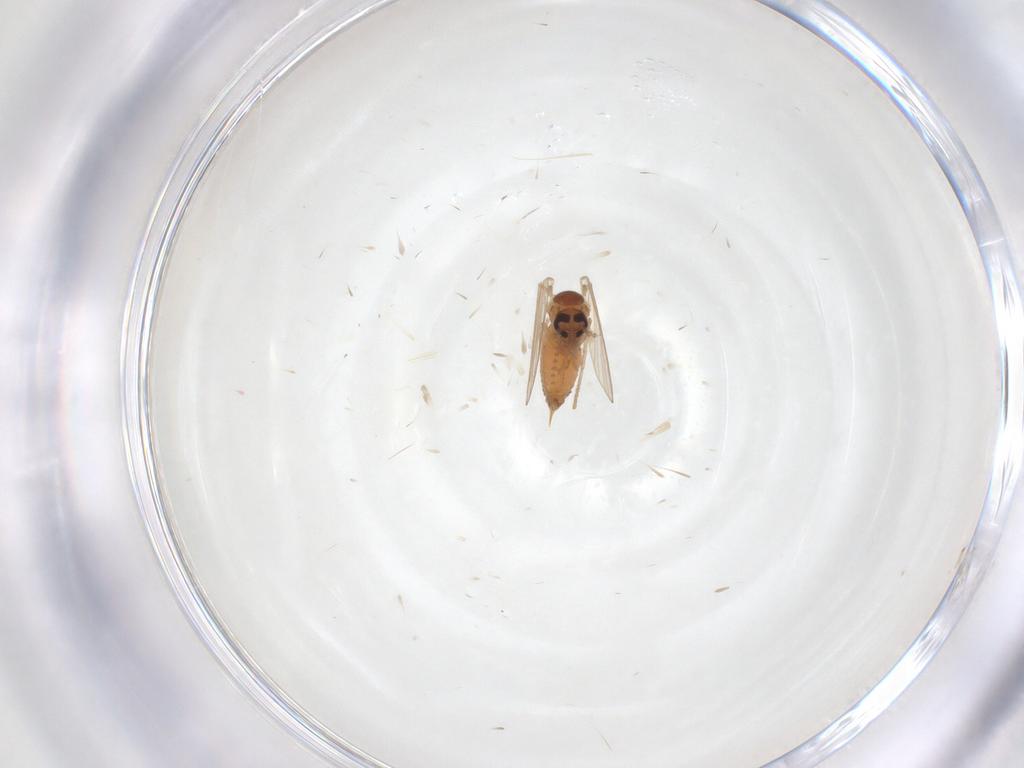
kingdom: Animalia
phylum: Arthropoda
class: Insecta
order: Diptera
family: Psychodidae
